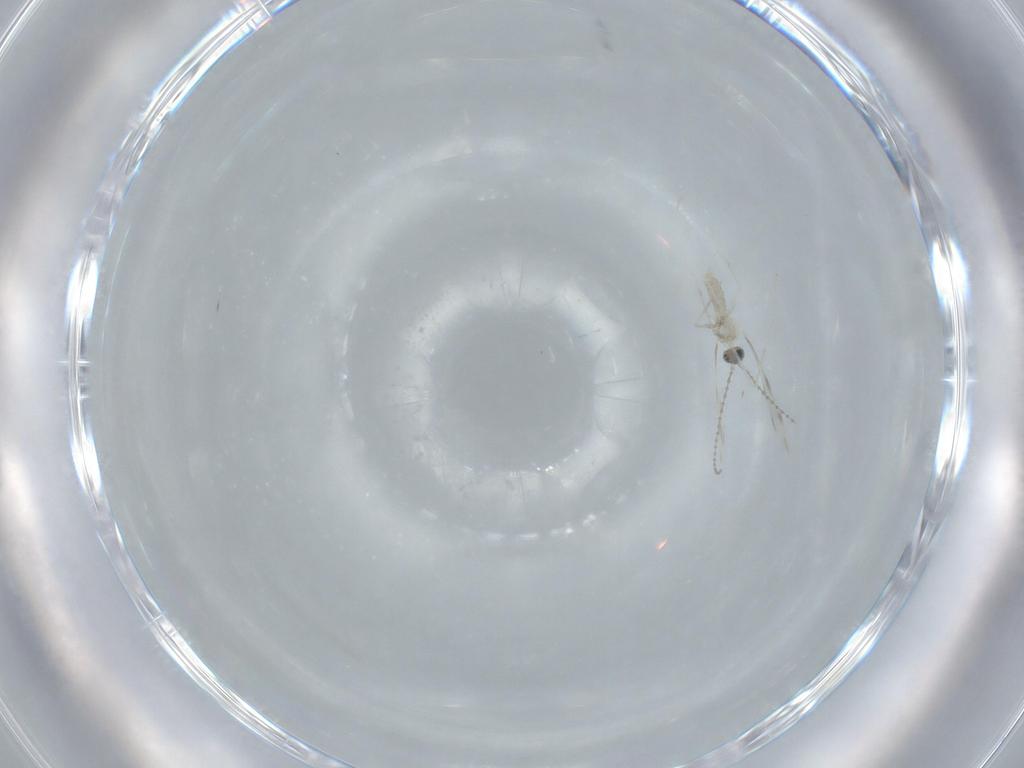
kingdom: Animalia
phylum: Arthropoda
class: Insecta
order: Diptera
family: Cecidomyiidae
